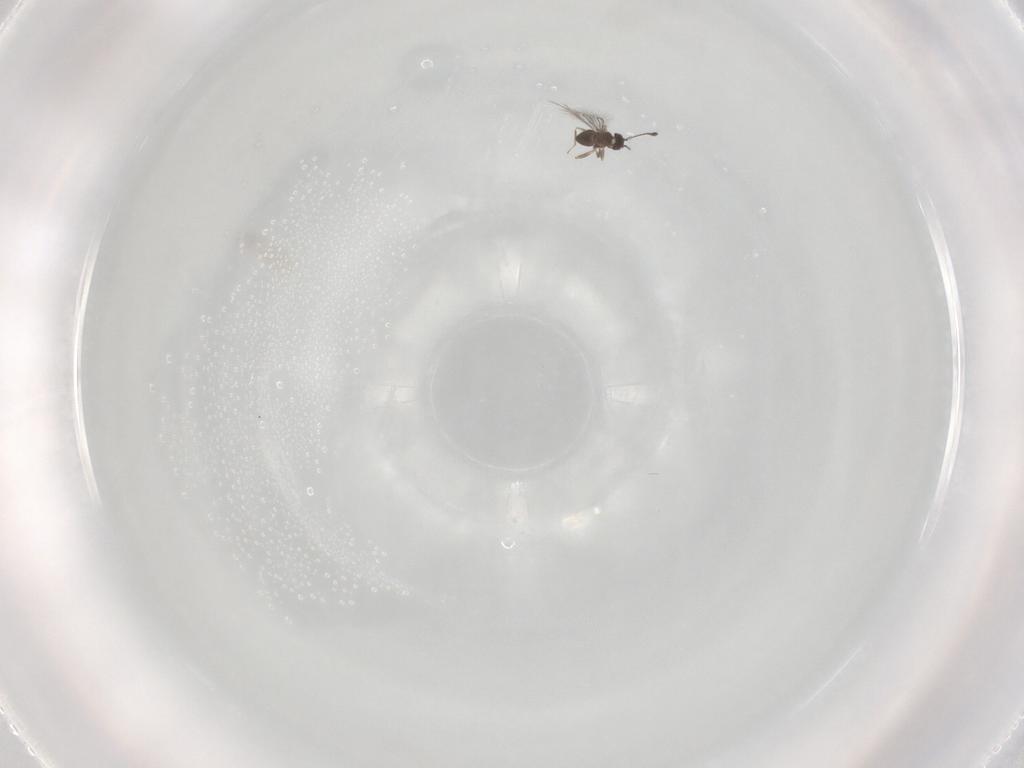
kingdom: Animalia
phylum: Arthropoda
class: Insecta
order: Hymenoptera
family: Mymaridae
